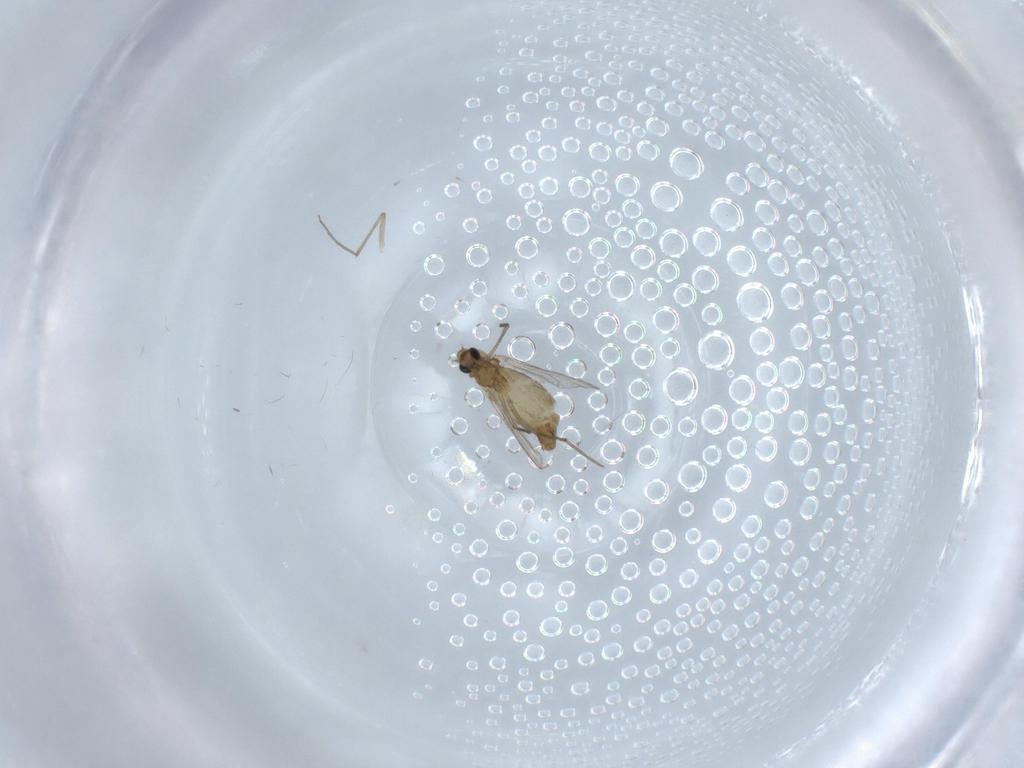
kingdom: Animalia
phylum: Arthropoda
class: Insecta
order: Diptera
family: Chironomidae
